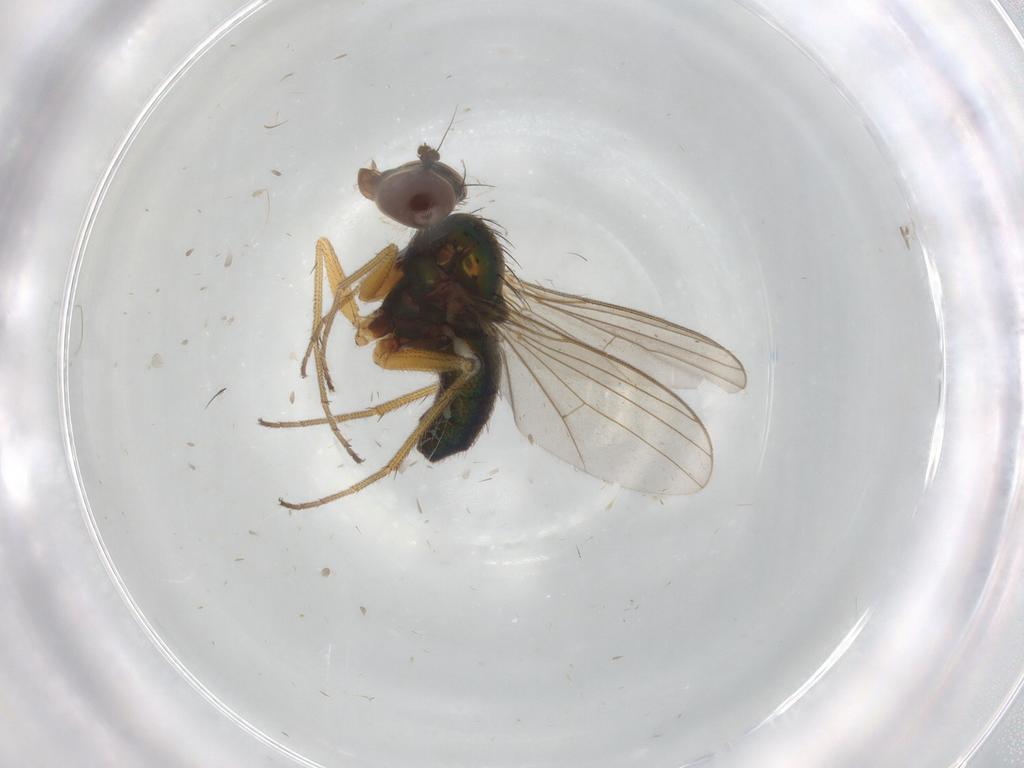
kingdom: Animalia
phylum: Arthropoda
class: Insecta
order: Diptera
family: Dolichopodidae
